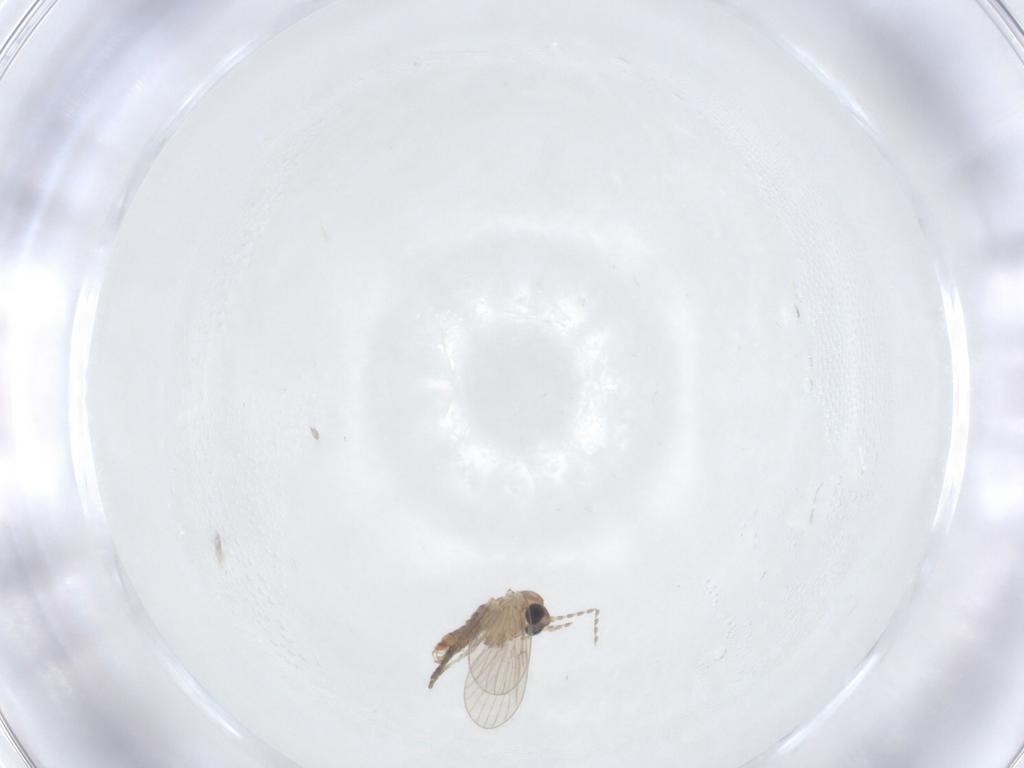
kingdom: Animalia
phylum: Arthropoda
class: Insecta
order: Diptera
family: Psychodidae
